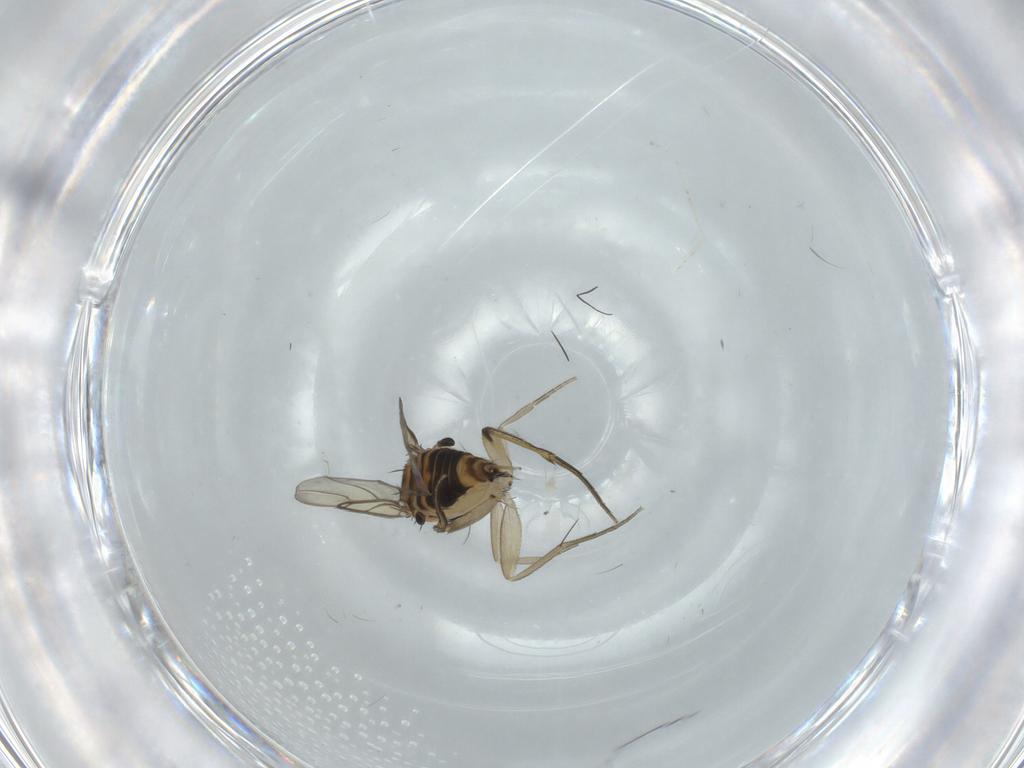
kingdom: Animalia
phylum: Arthropoda
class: Insecta
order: Diptera
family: Phoridae
